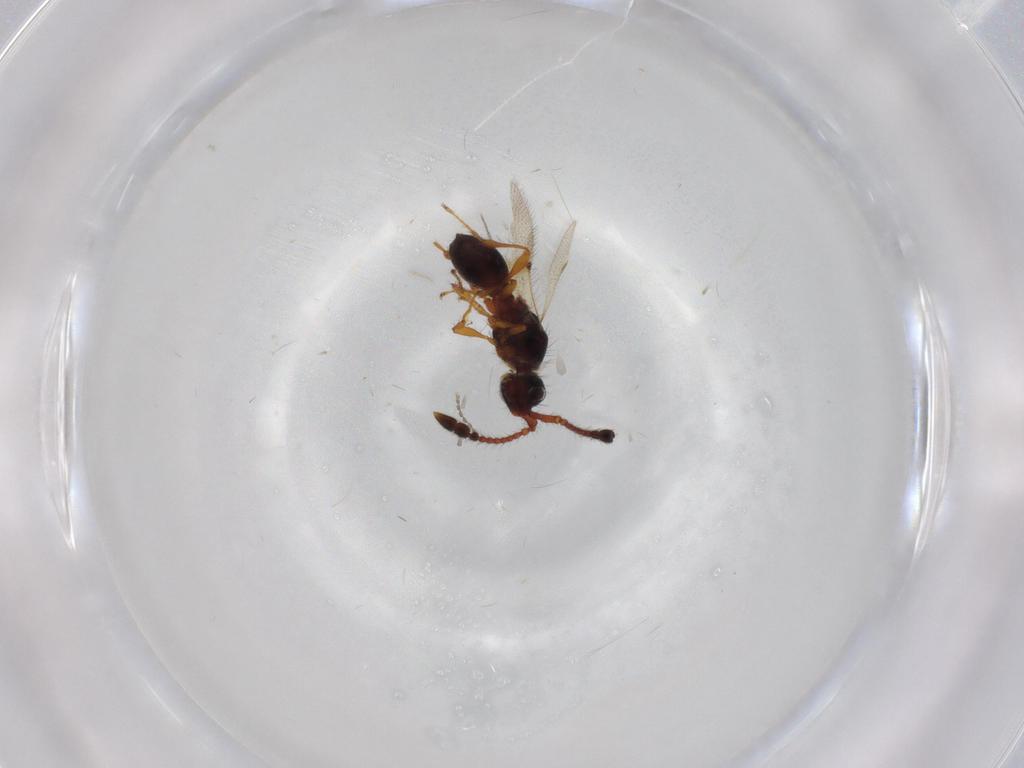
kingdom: Animalia
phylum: Arthropoda
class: Insecta
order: Hymenoptera
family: Diapriidae
